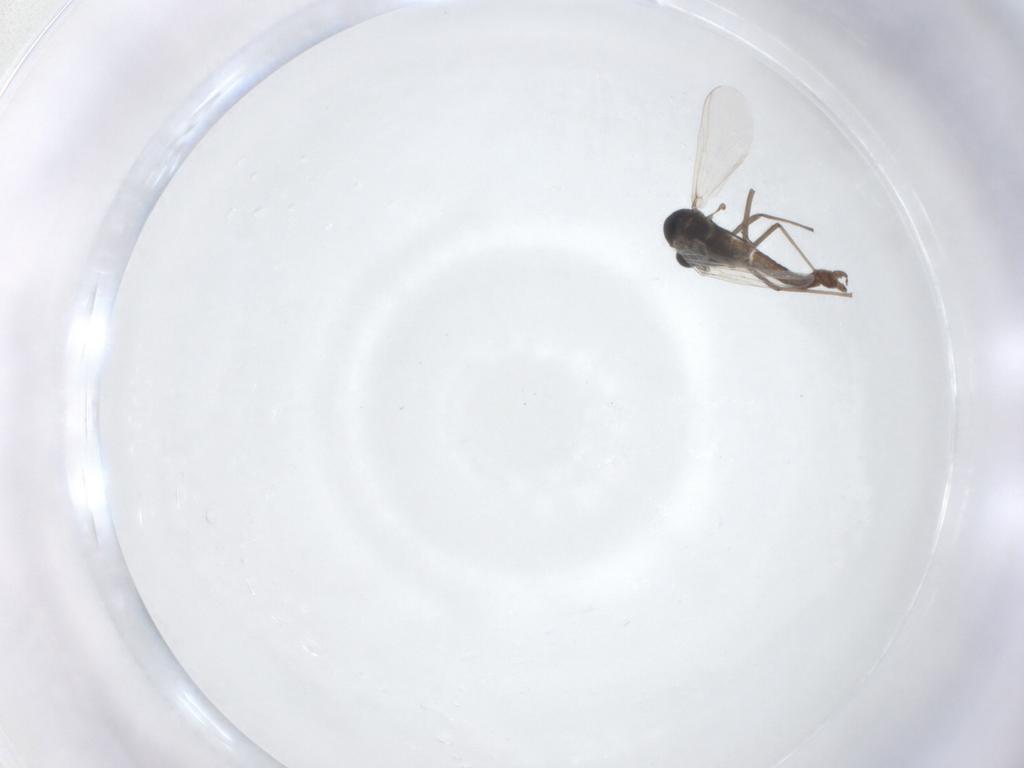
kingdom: Animalia
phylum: Arthropoda
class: Insecta
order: Diptera
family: Chironomidae
